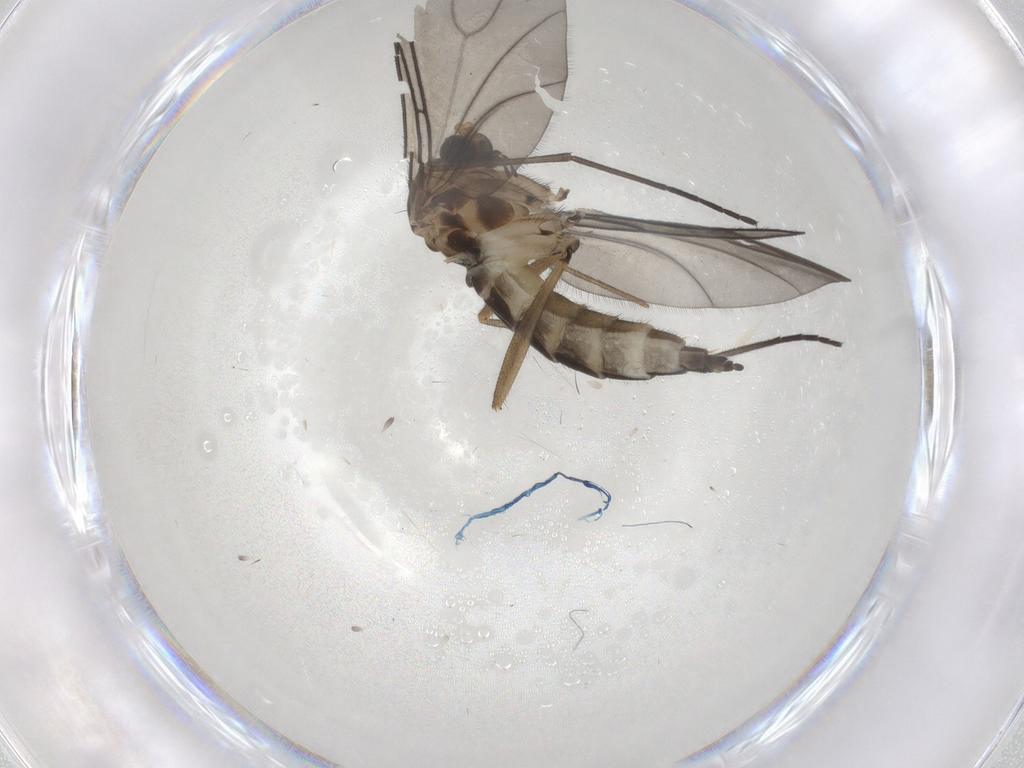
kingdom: Animalia
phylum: Arthropoda
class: Insecta
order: Diptera
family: Sciaridae
